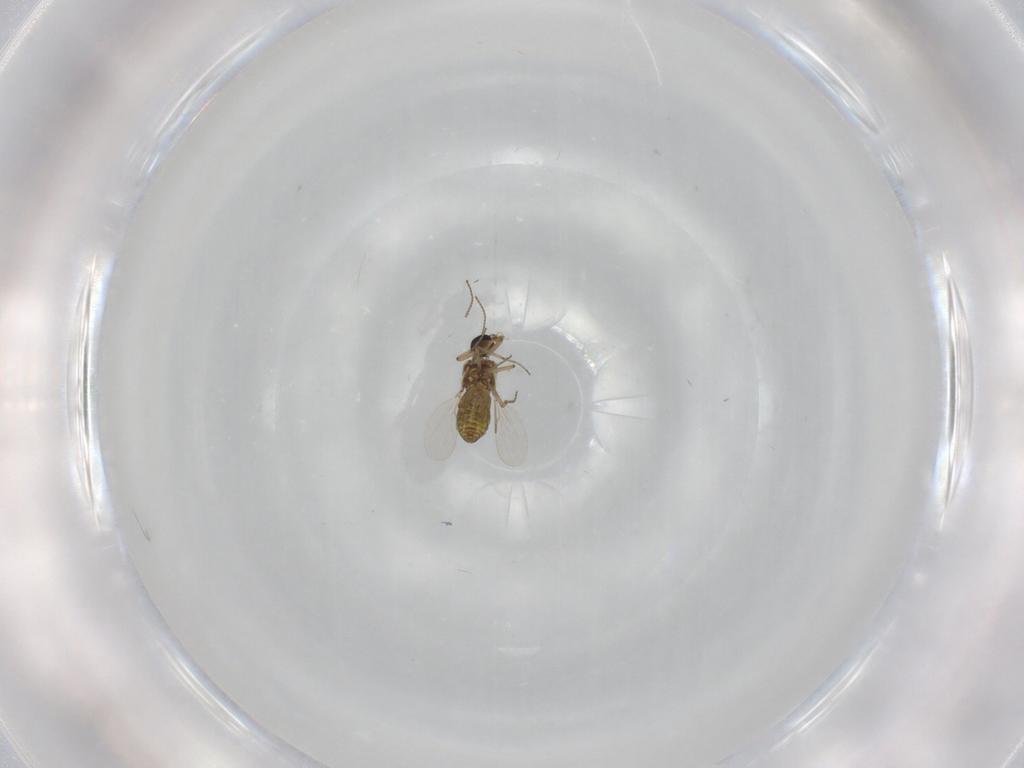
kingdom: Animalia
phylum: Arthropoda
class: Insecta
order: Diptera
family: Ceratopogonidae
